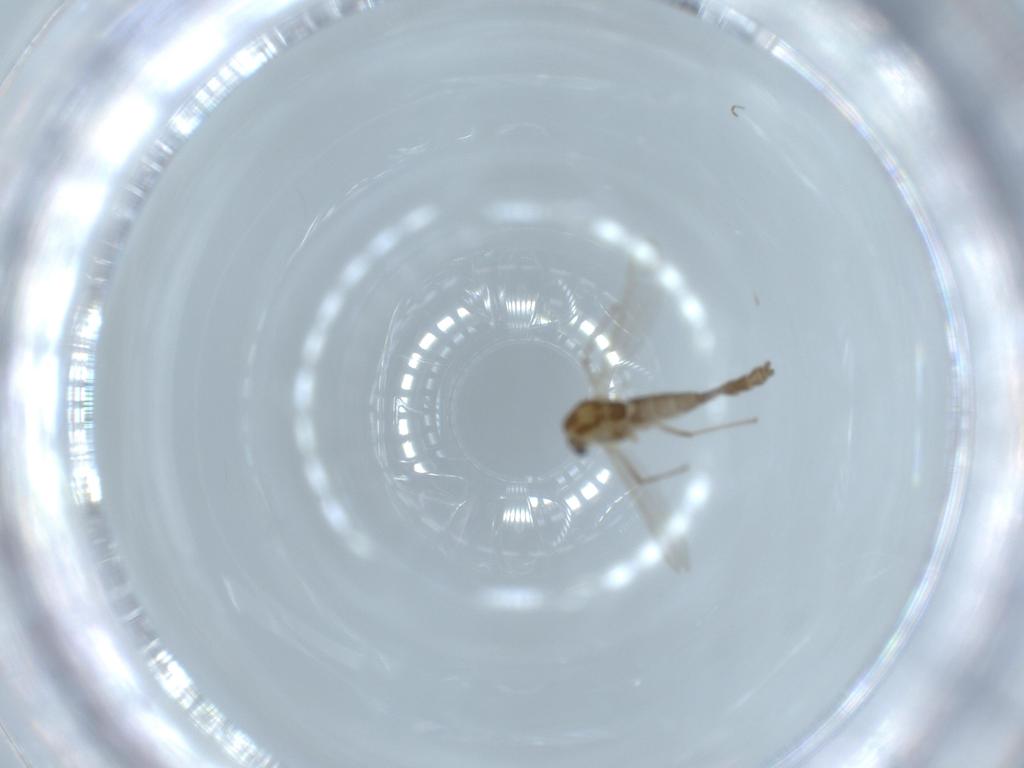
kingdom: Animalia
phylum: Arthropoda
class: Insecta
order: Diptera
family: Chironomidae
